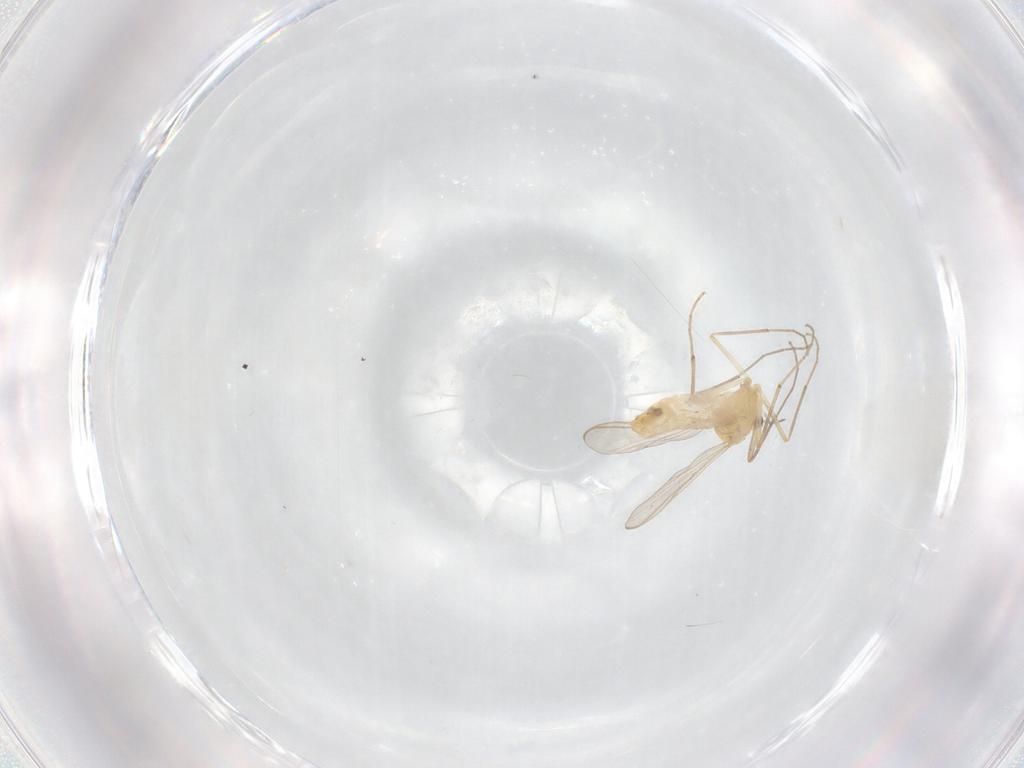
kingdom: Animalia
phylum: Arthropoda
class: Insecta
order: Diptera
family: Chironomidae
